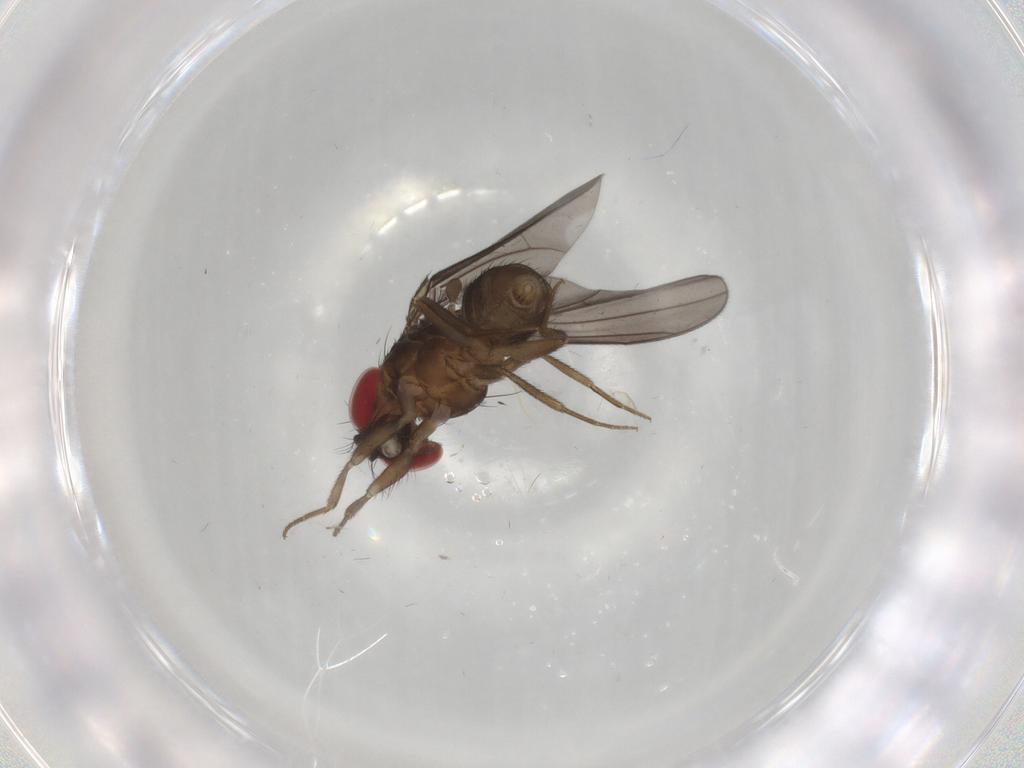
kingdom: Animalia
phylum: Arthropoda
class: Insecta
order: Diptera
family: Drosophilidae
